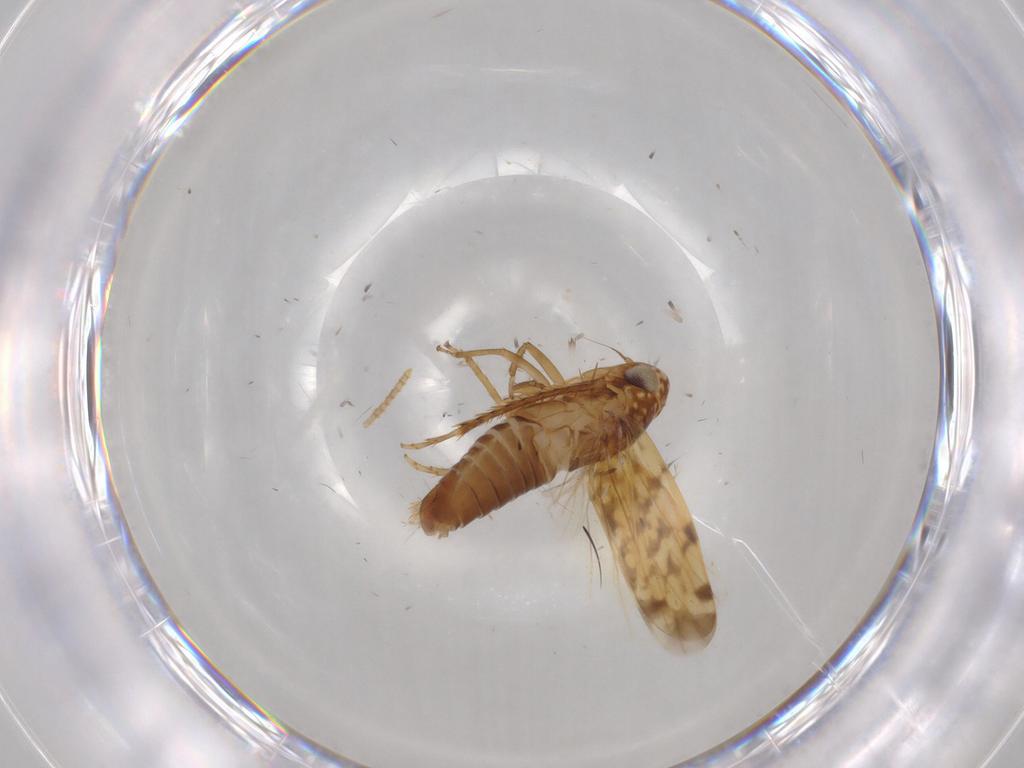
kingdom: Animalia
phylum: Arthropoda
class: Insecta
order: Hemiptera
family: Cicadellidae
